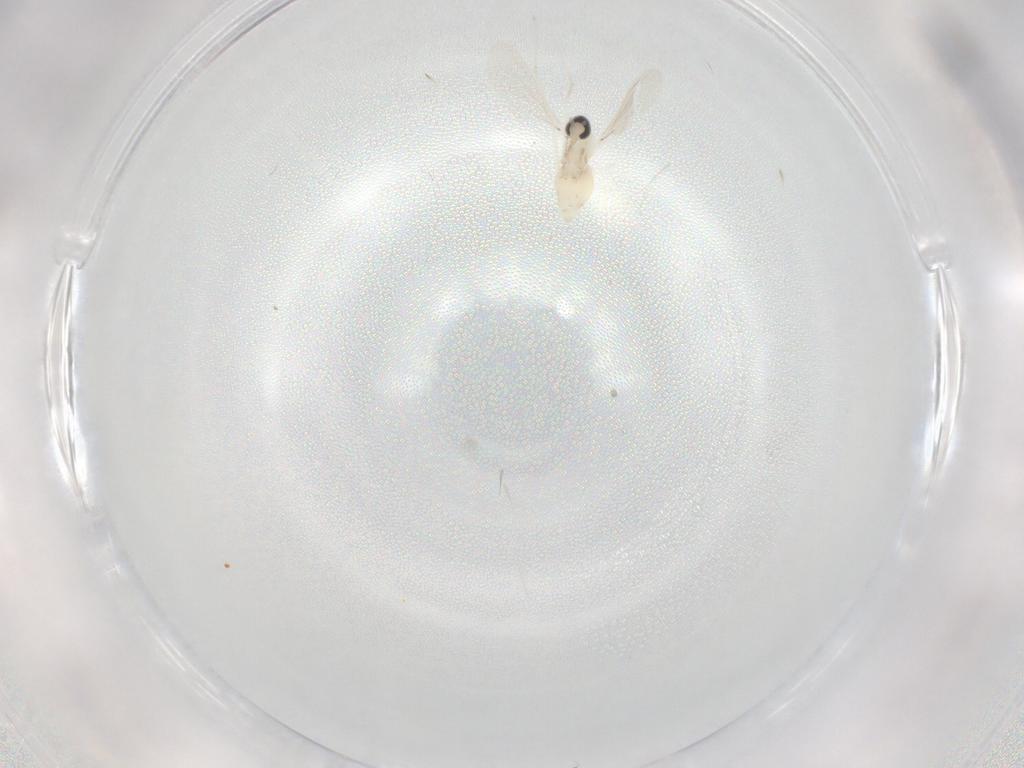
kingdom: Animalia
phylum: Arthropoda
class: Insecta
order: Diptera
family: Cecidomyiidae
